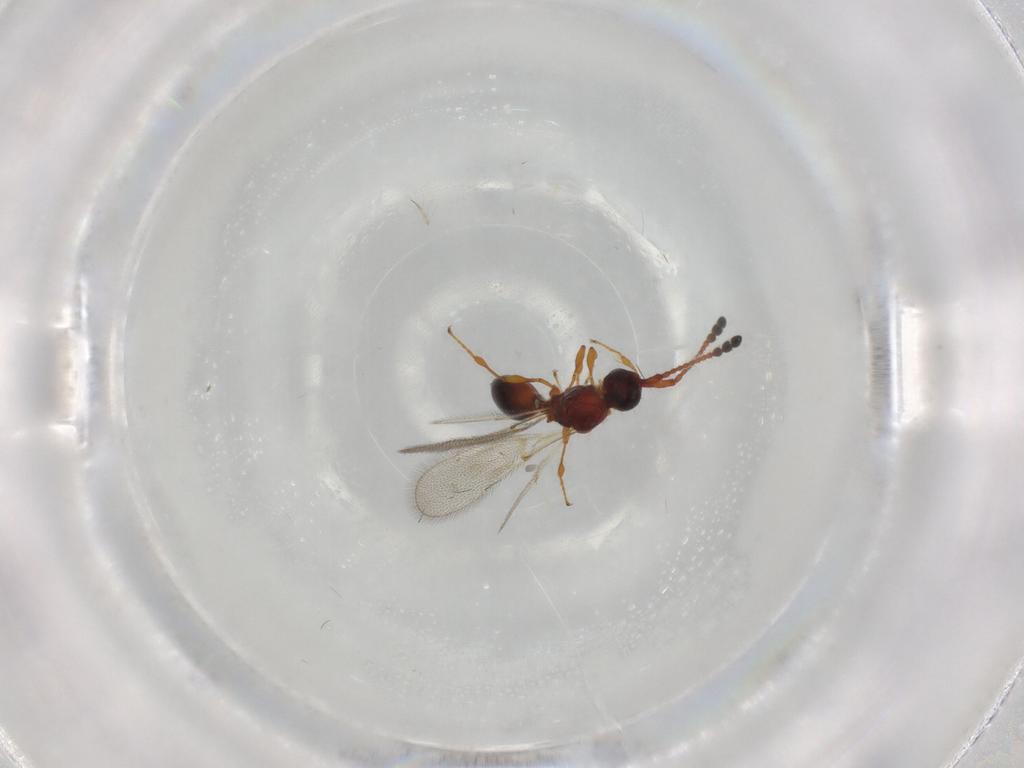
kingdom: Animalia
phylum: Arthropoda
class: Insecta
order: Hymenoptera
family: Diapriidae
